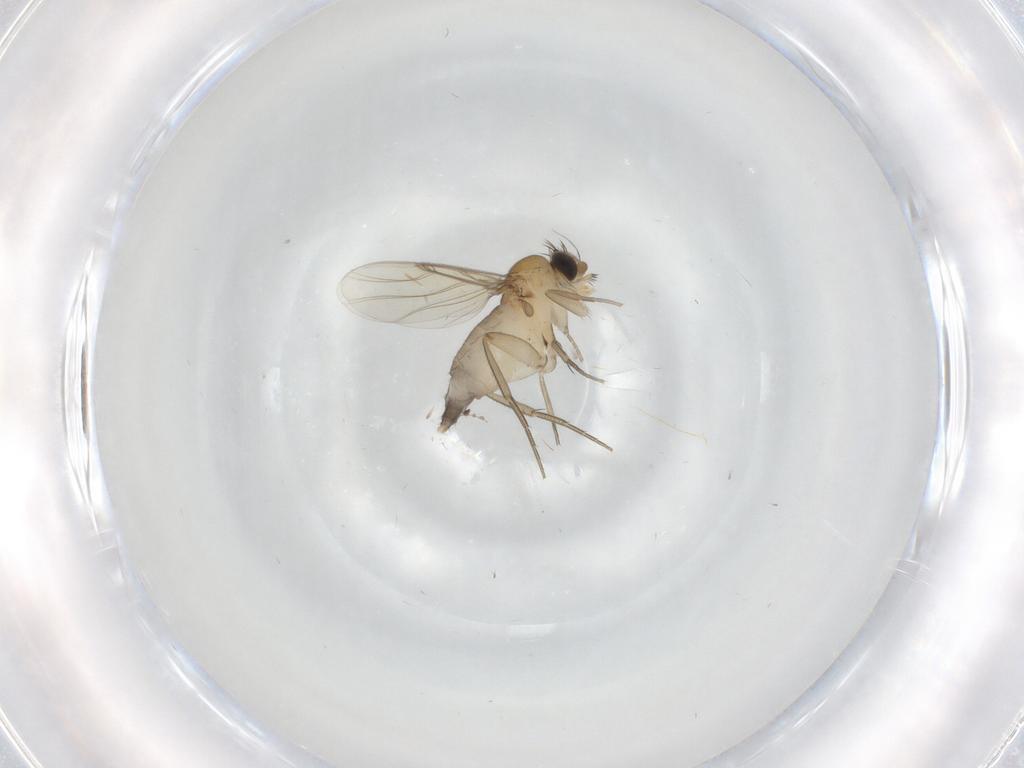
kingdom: Animalia
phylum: Arthropoda
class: Insecta
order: Diptera
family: Phoridae
